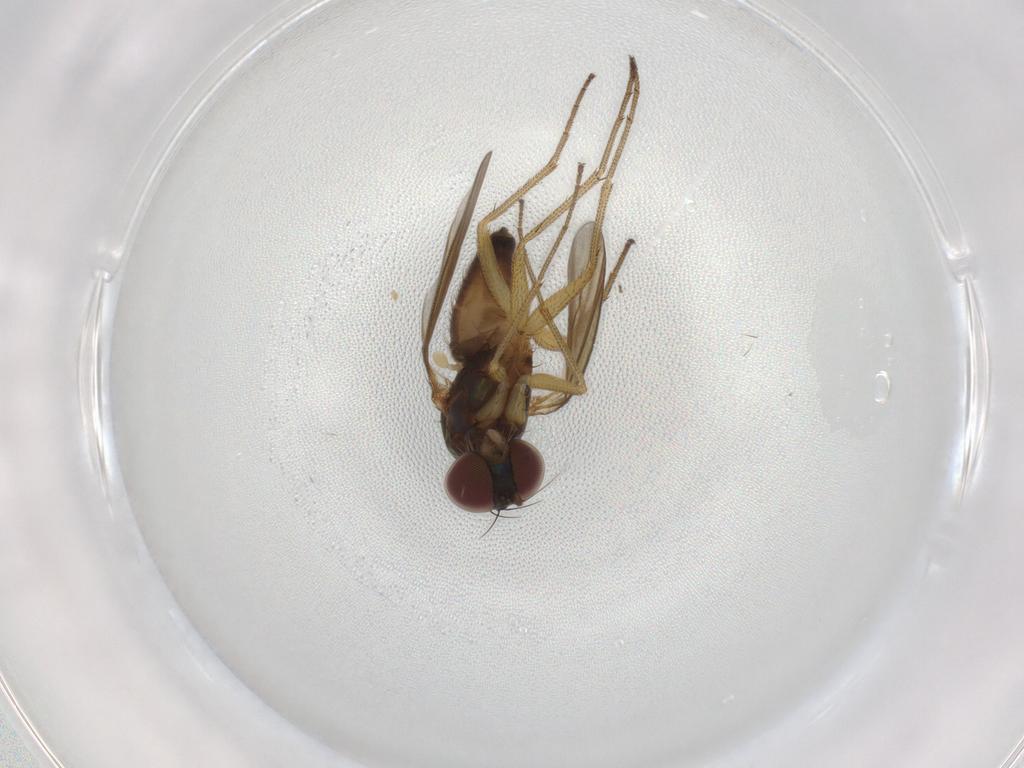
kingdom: Animalia
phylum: Arthropoda
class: Insecta
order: Diptera
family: Dolichopodidae
